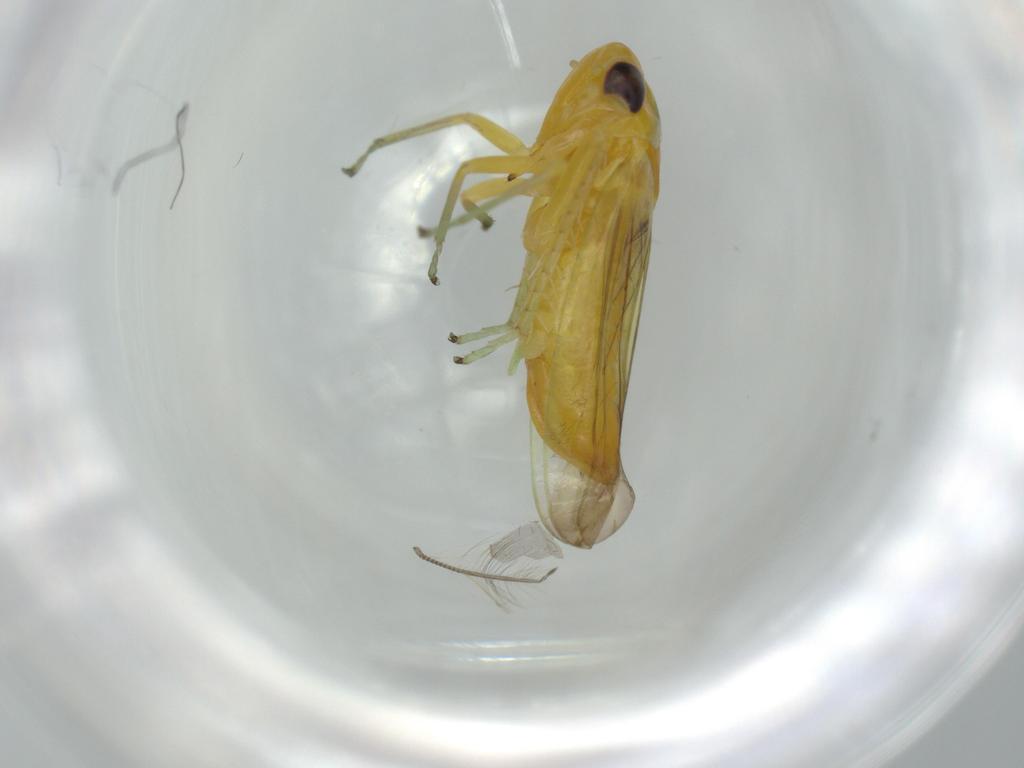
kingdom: Animalia
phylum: Arthropoda
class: Insecta
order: Hemiptera
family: Cicadellidae
